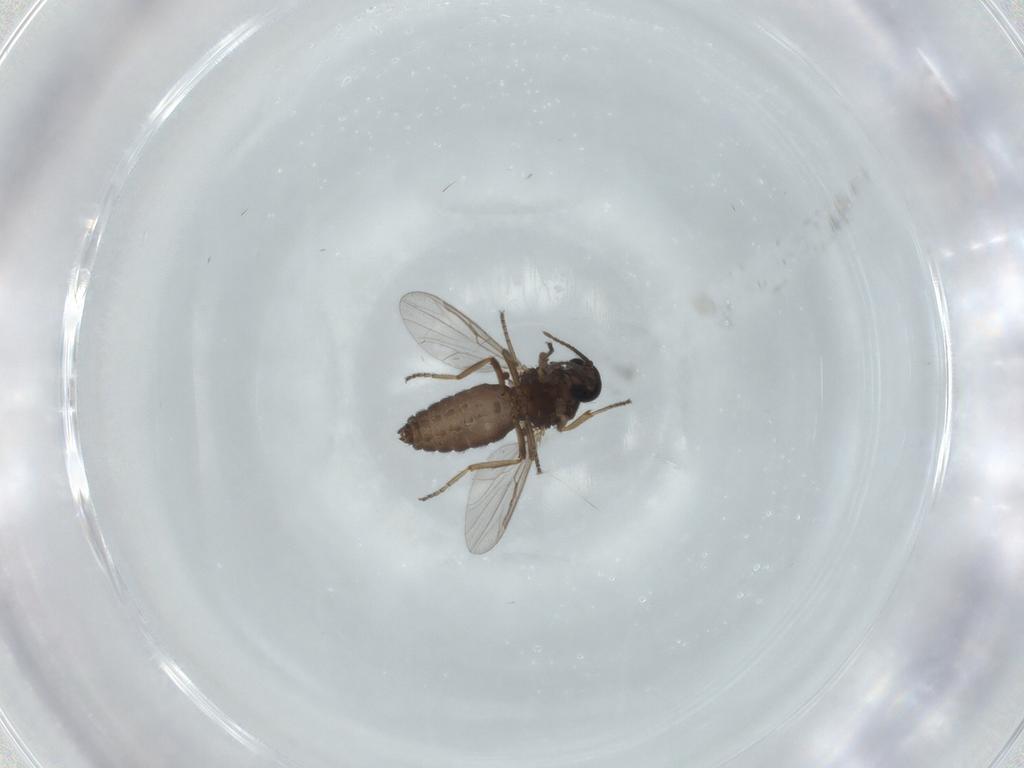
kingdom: Animalia
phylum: Arthropoda
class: Insecta
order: Diptera
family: Ceratopogonidae
